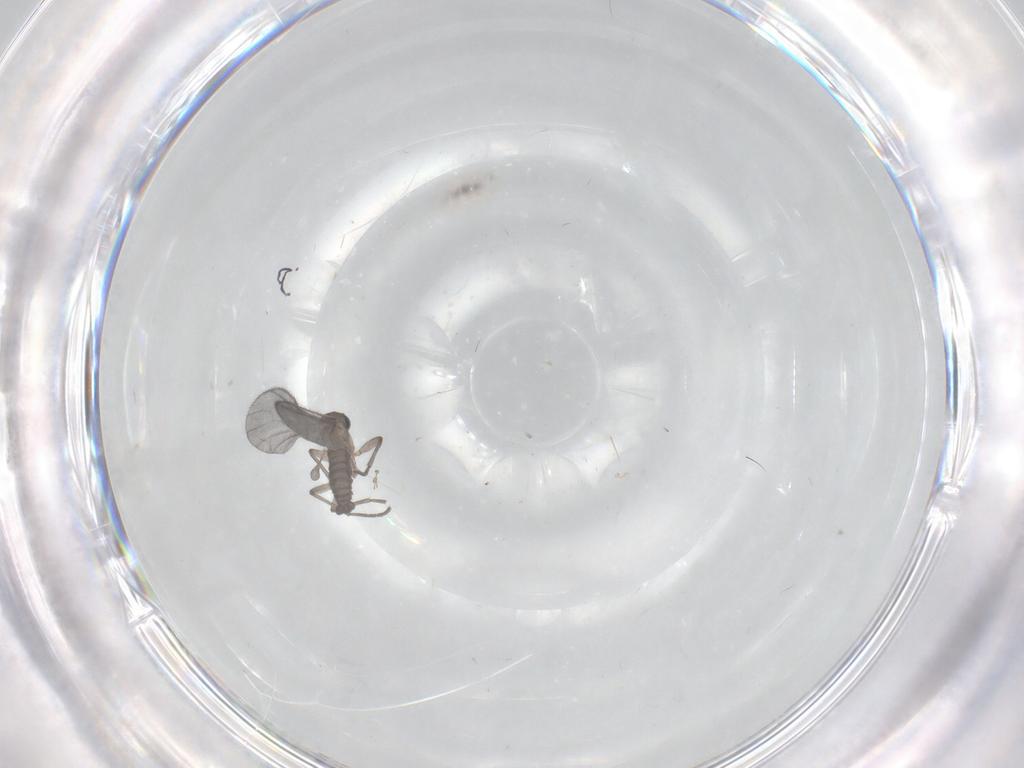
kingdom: Animalia
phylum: Arthropoda
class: Insecta
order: Diptera
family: Sciaridae
